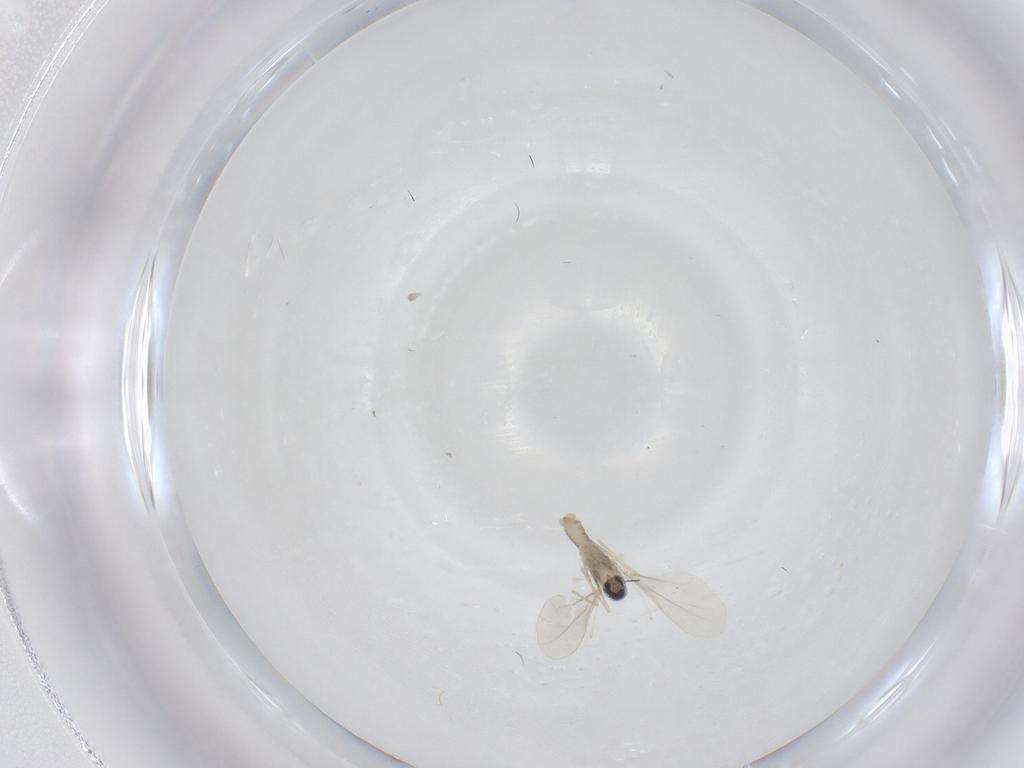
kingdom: Animalia
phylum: Arthropoda
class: Insecta
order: Diptera
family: Cecidomyiidae
